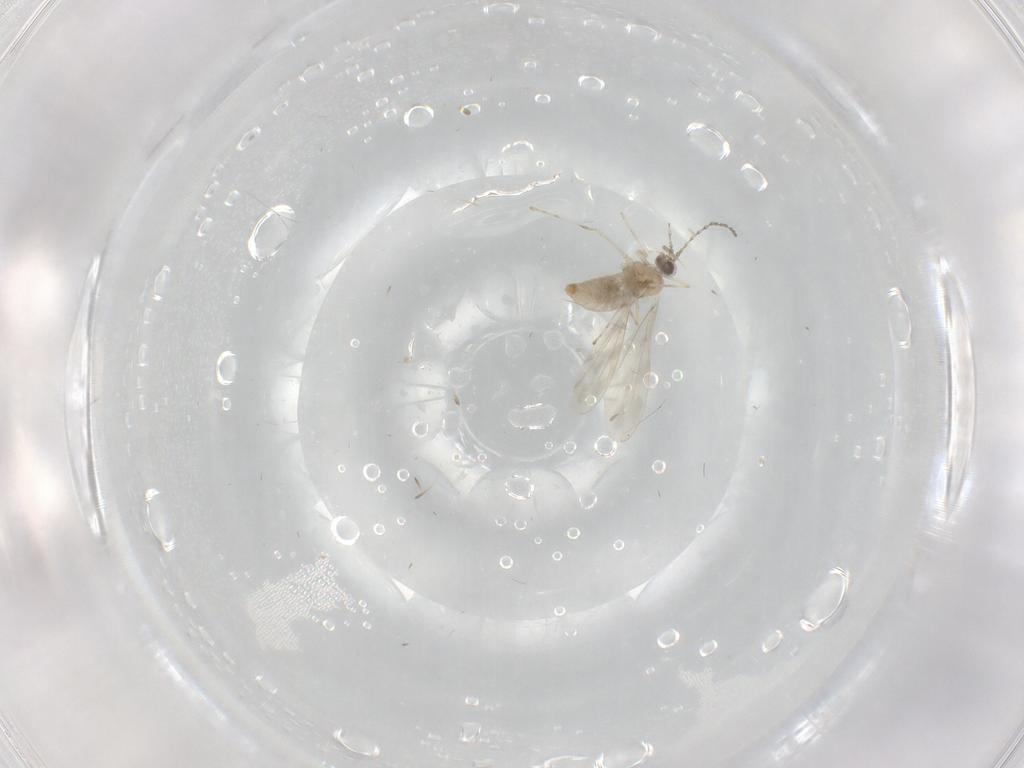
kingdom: Animalia
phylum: Arthropoda
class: Insecta
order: Diptera
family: Cecidomyiidae
